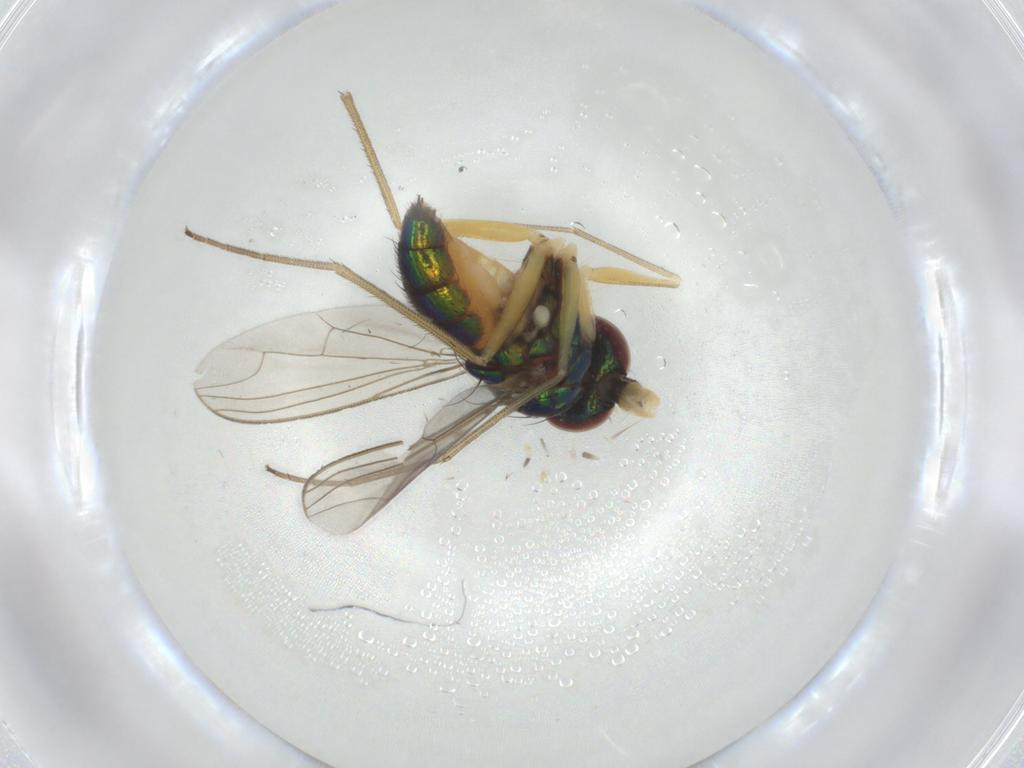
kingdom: Animalia
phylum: Arthropoda
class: Insecta
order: Diptera
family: Dolichopodidae
